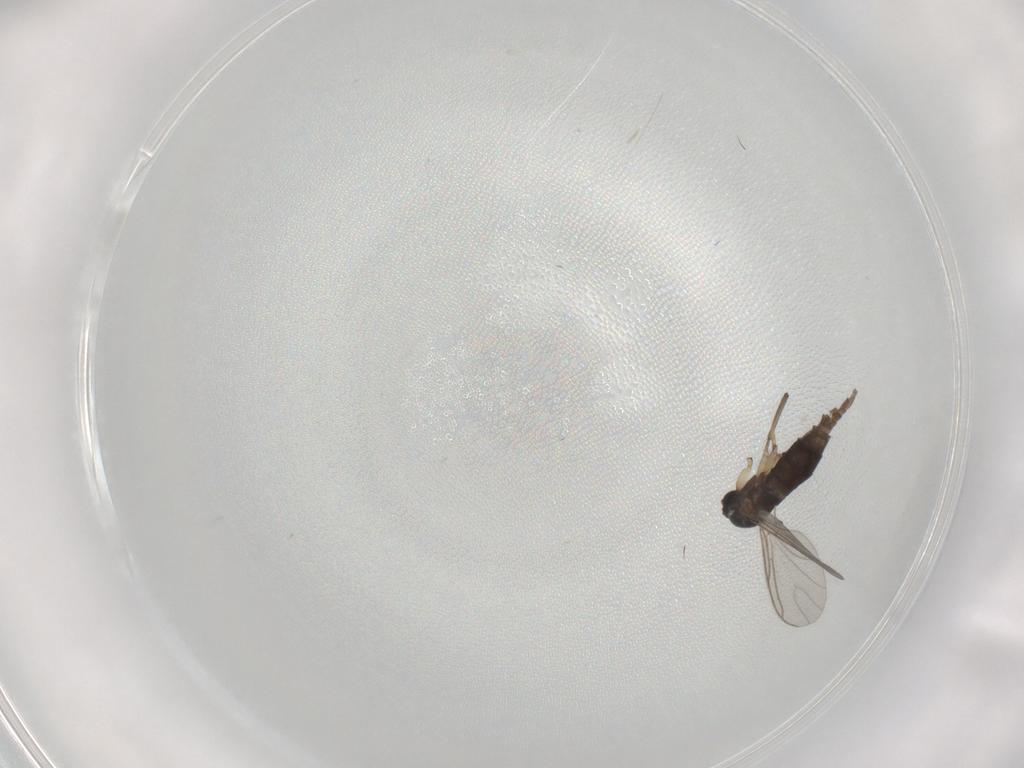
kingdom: Animalia
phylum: Arthropoda
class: Insecta
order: Diptera
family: Sciaridae
